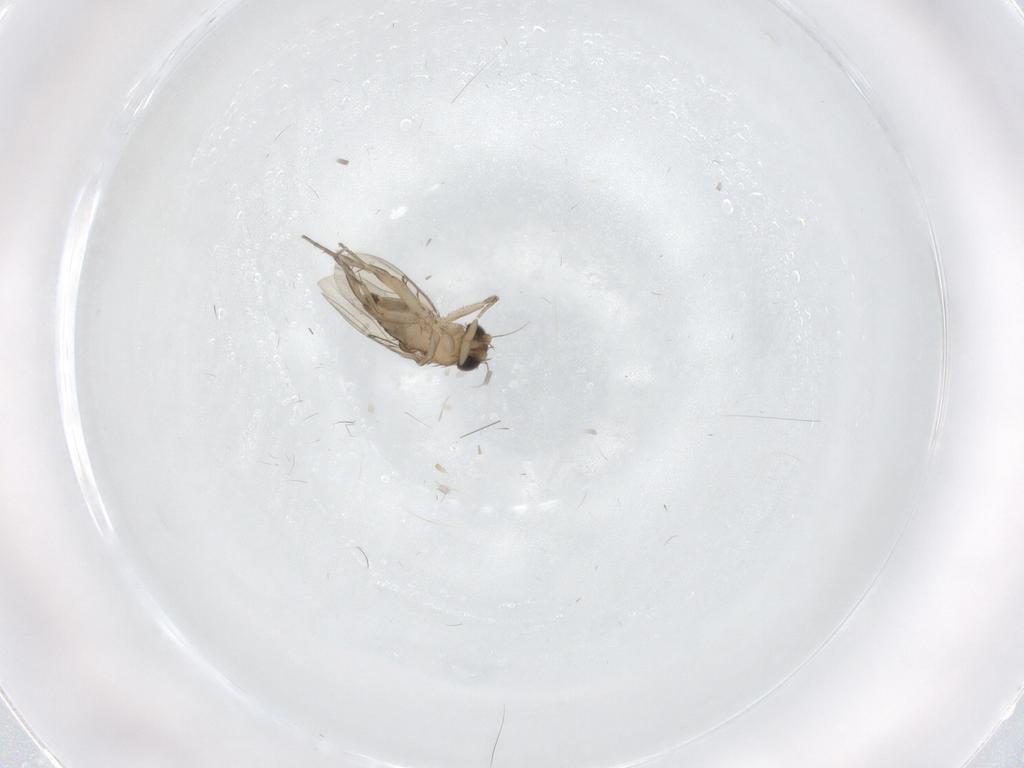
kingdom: Animalia
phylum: Arthropoda
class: Insecta
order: Diptera
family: Phoridae
